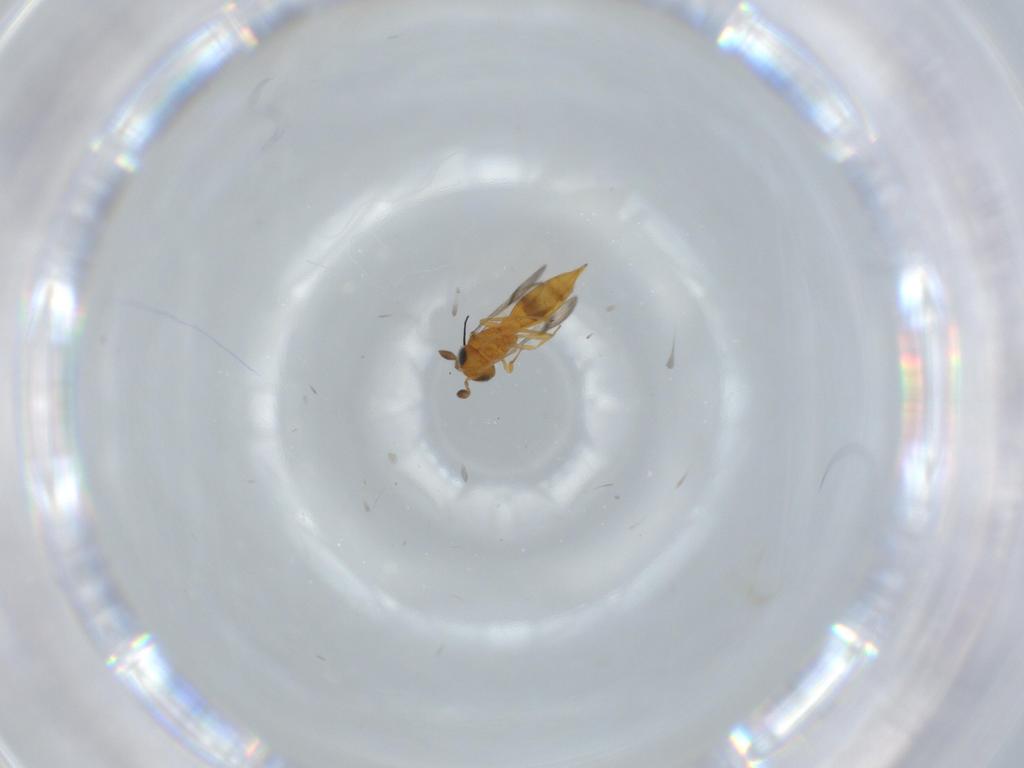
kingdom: Animalia
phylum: Arthropoda
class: Insecta
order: Hymenoptera
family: Scelionidae
